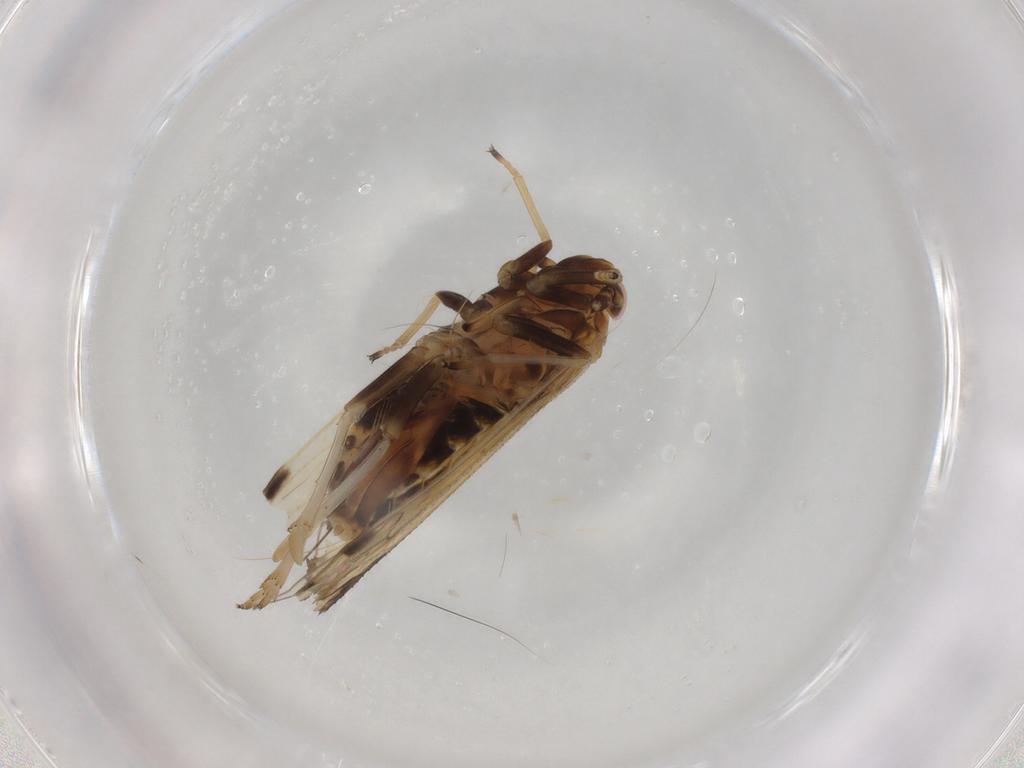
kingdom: Animalia
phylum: Arthropoda
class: Insecta
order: Hemiptera
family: Delphacidae
